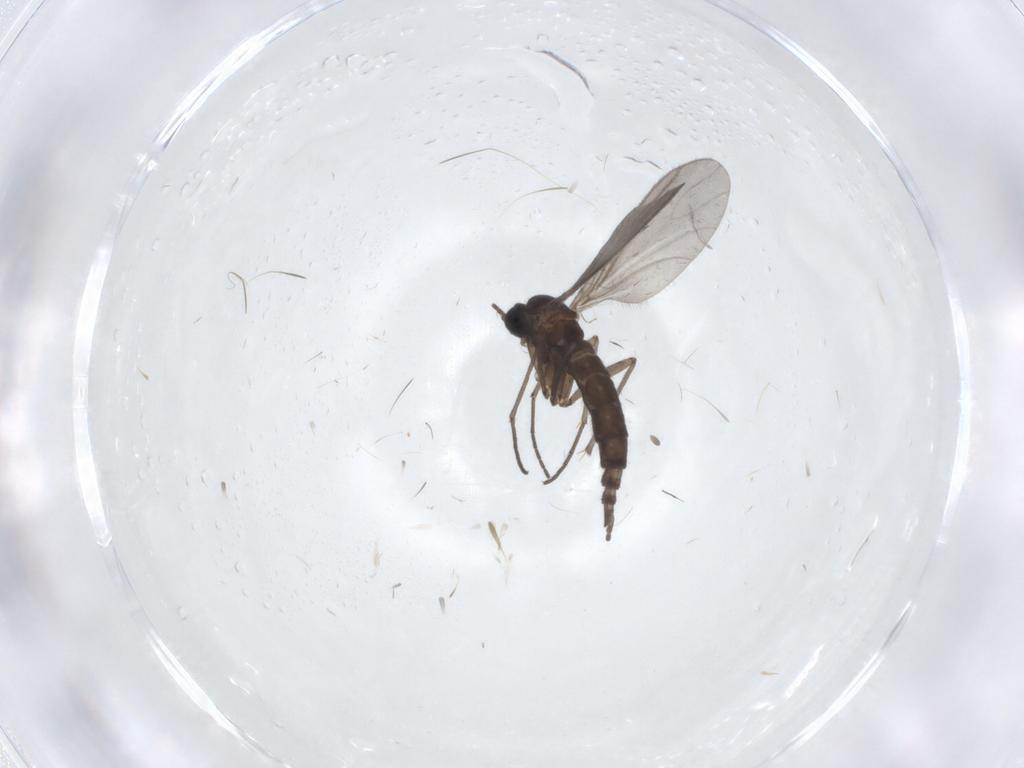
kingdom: Animalia
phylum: Arthropoda
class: Insecta
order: Diptera
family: Sciaridae
